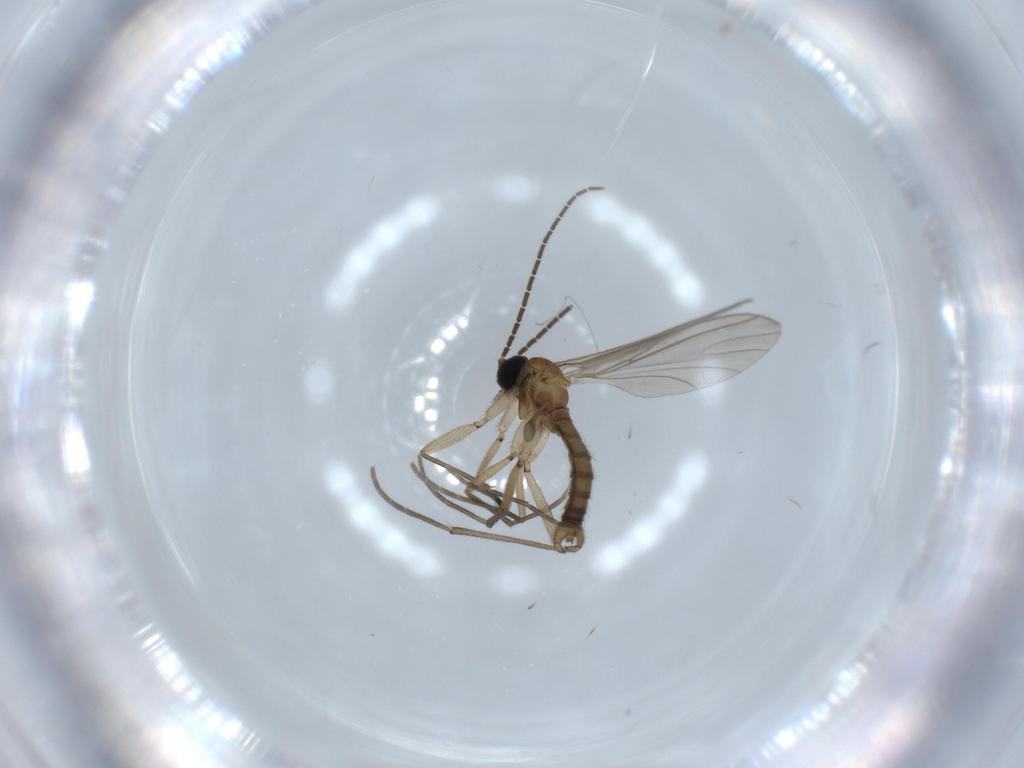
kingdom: Animalia
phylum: Arthropoda
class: Insecta
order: Diptera
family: Sciaridae
